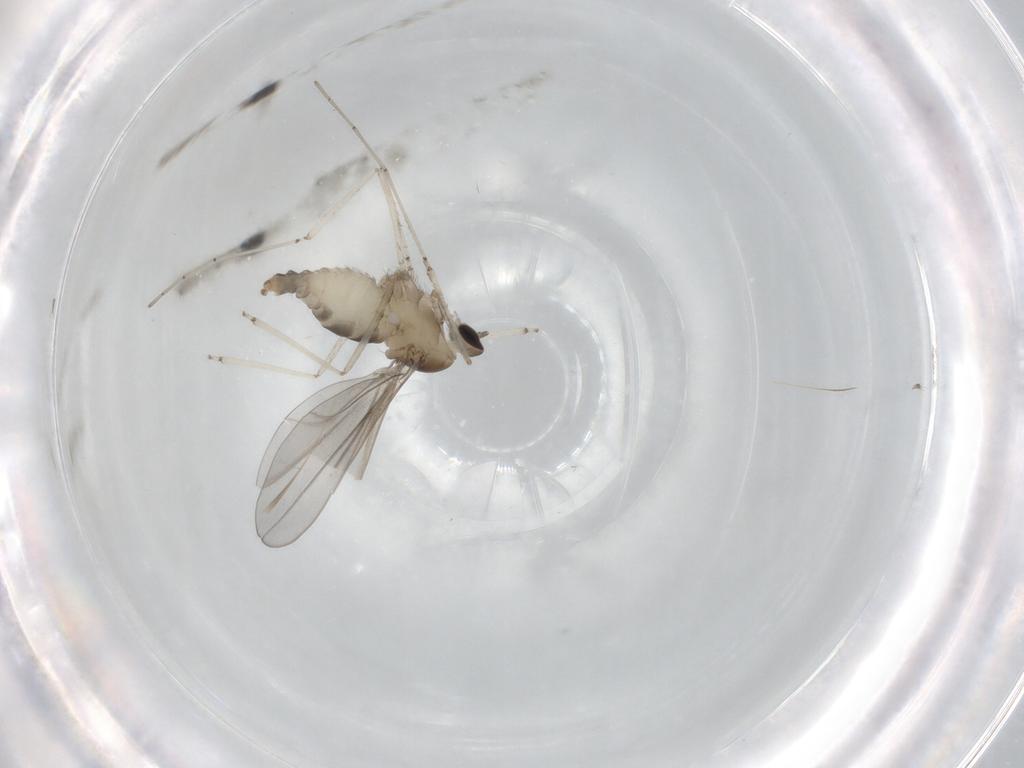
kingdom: Animalia
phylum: Arthropoda
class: Insecta
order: Diptera
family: Cecidomyiidae
